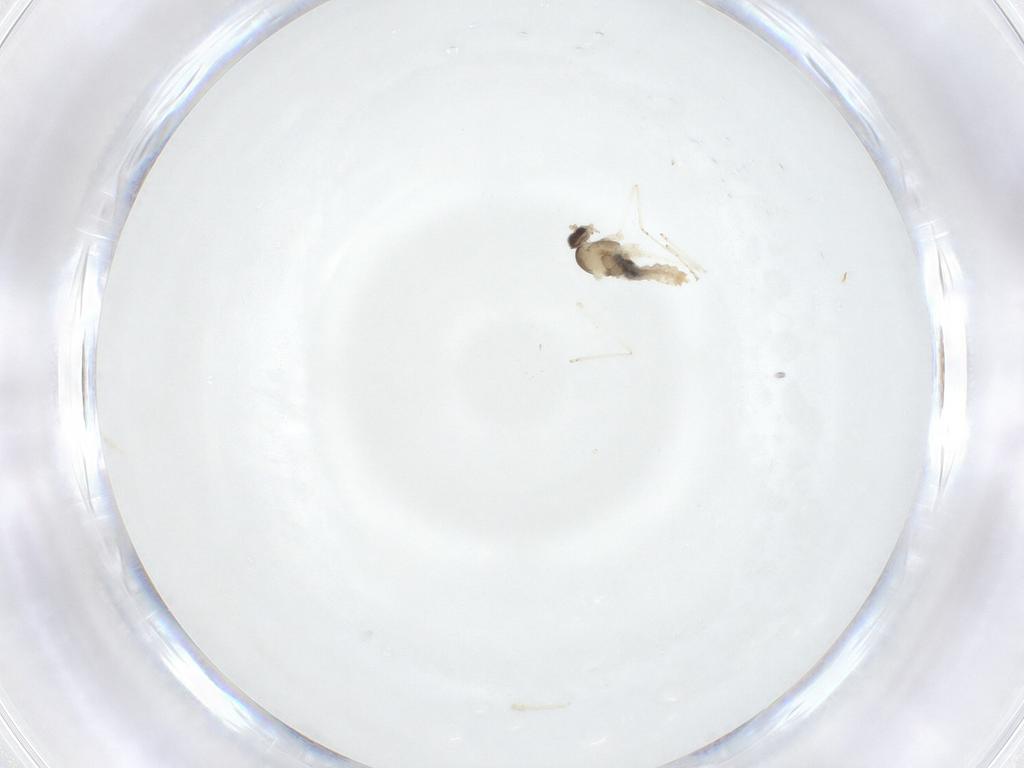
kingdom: Animalia
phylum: Arthropoda
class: Insecta
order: Diptera
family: Cecidomyiidae
